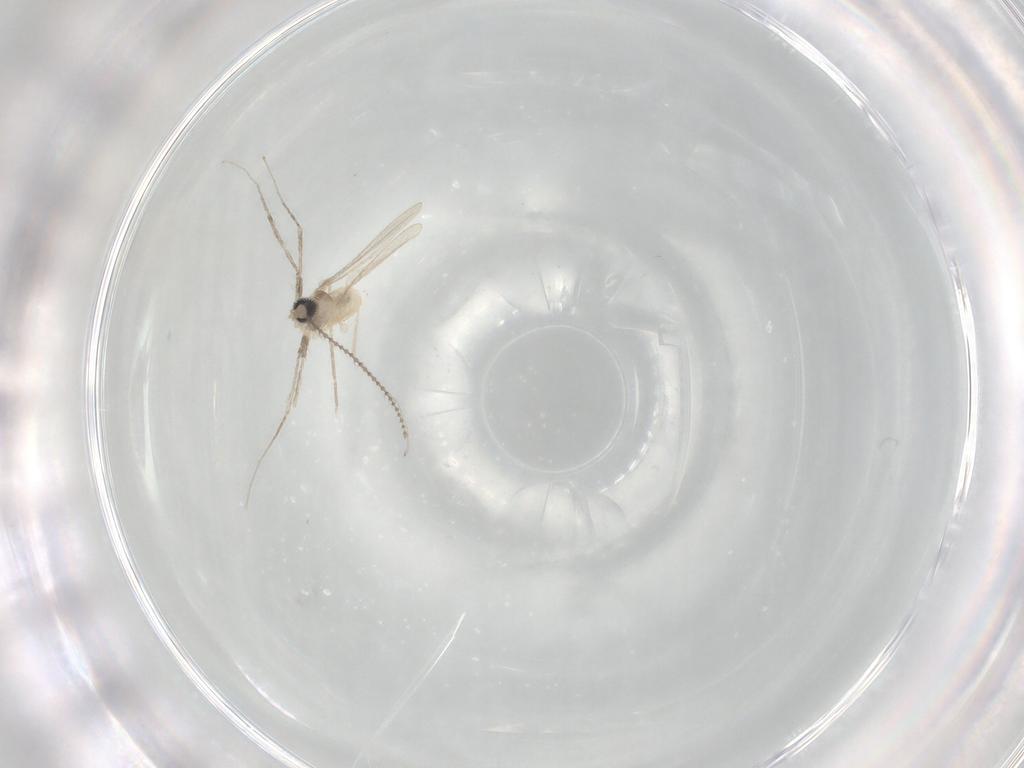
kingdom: Animalia
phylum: Arthropoda
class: Insecta
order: Diptera
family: Cecidomyiidae
